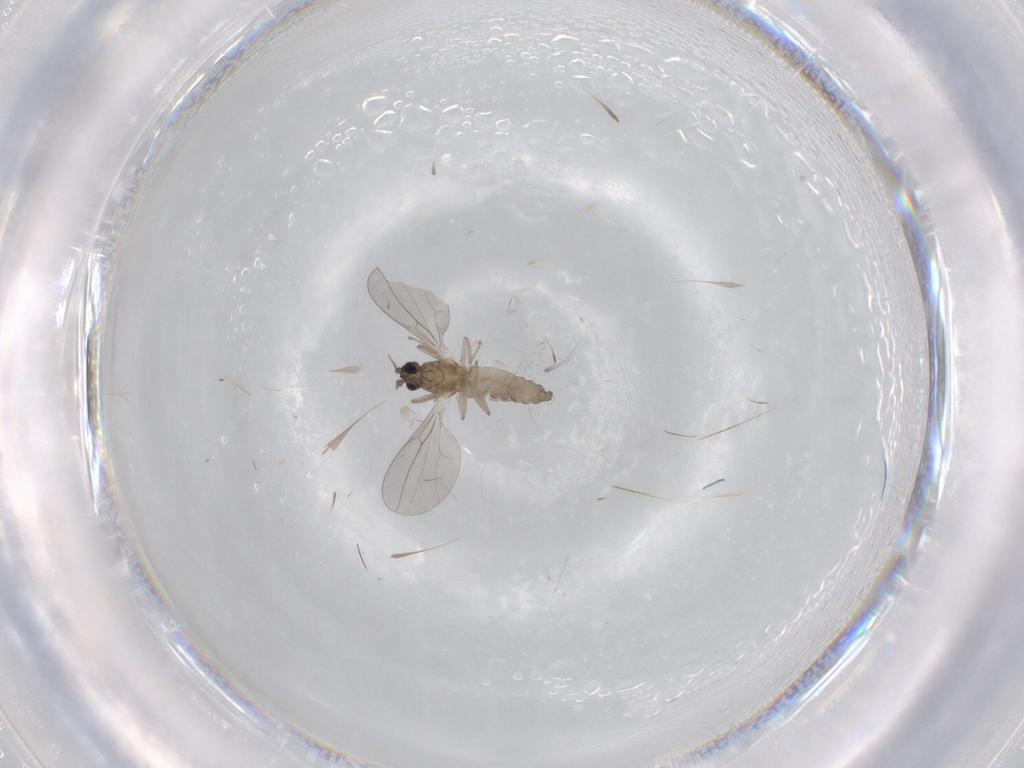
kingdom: Animalia
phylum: Arthropoda
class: Insecta
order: Diptera
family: Cecidomyiidae
